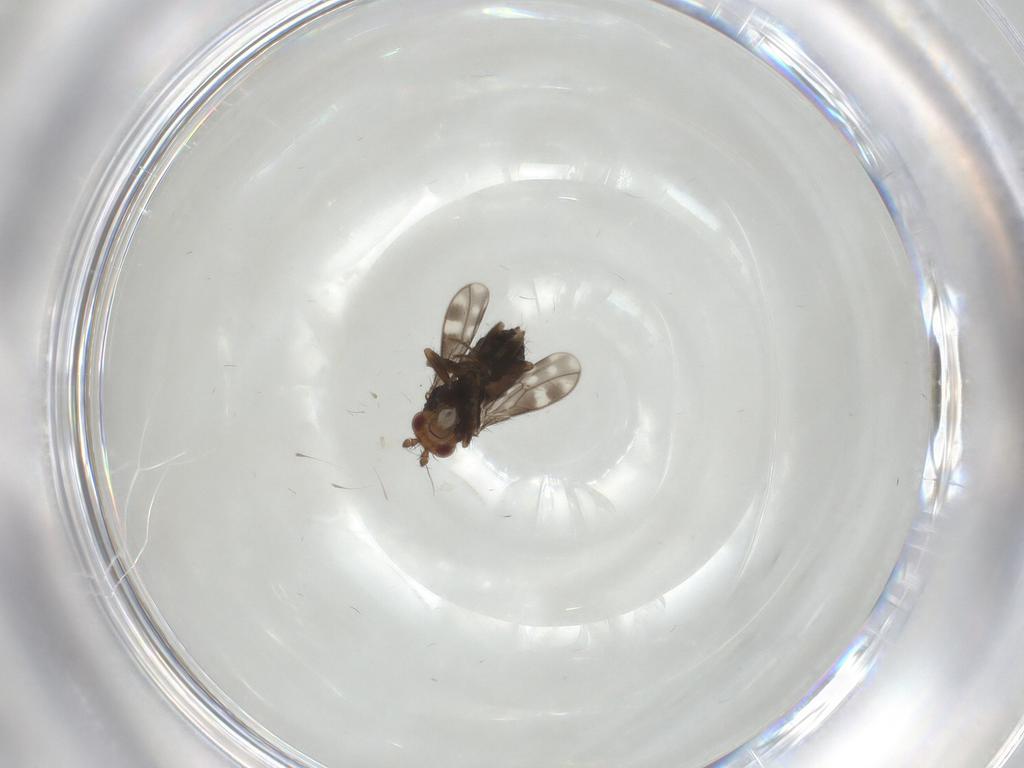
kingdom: Animalia
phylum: Arthropoda
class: Insecta
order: Diptera
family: Sphaeroceridae
